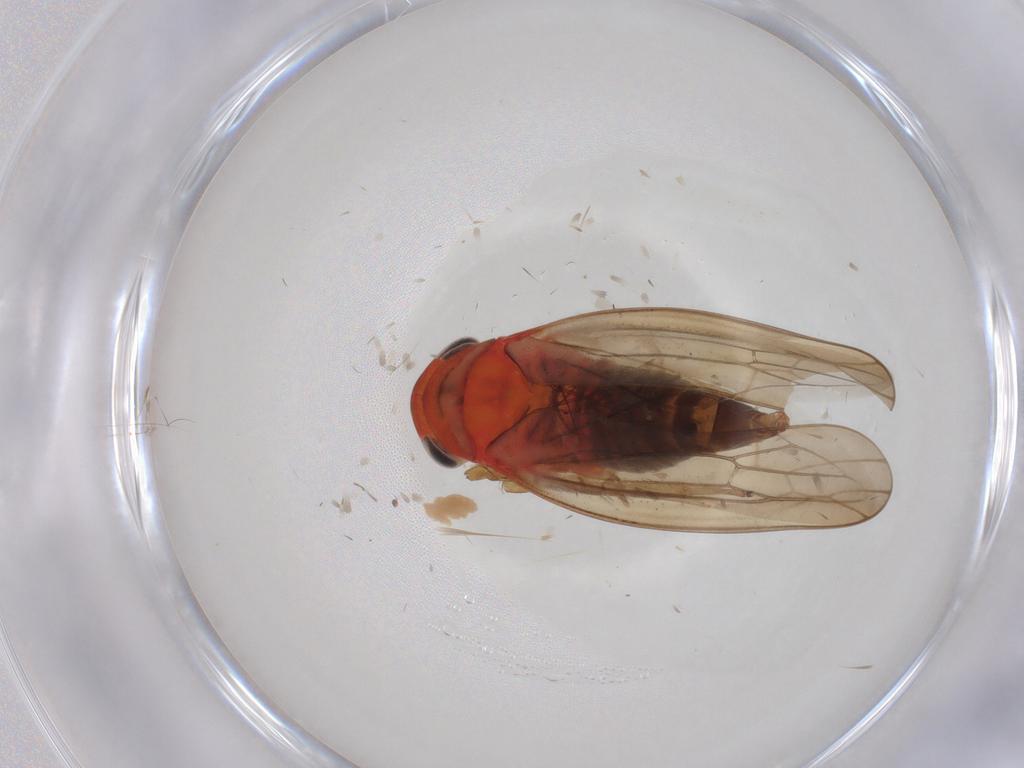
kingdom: Animalia
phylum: Arthropoda
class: Insecta
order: Hemiptera
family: Cicadellidae
